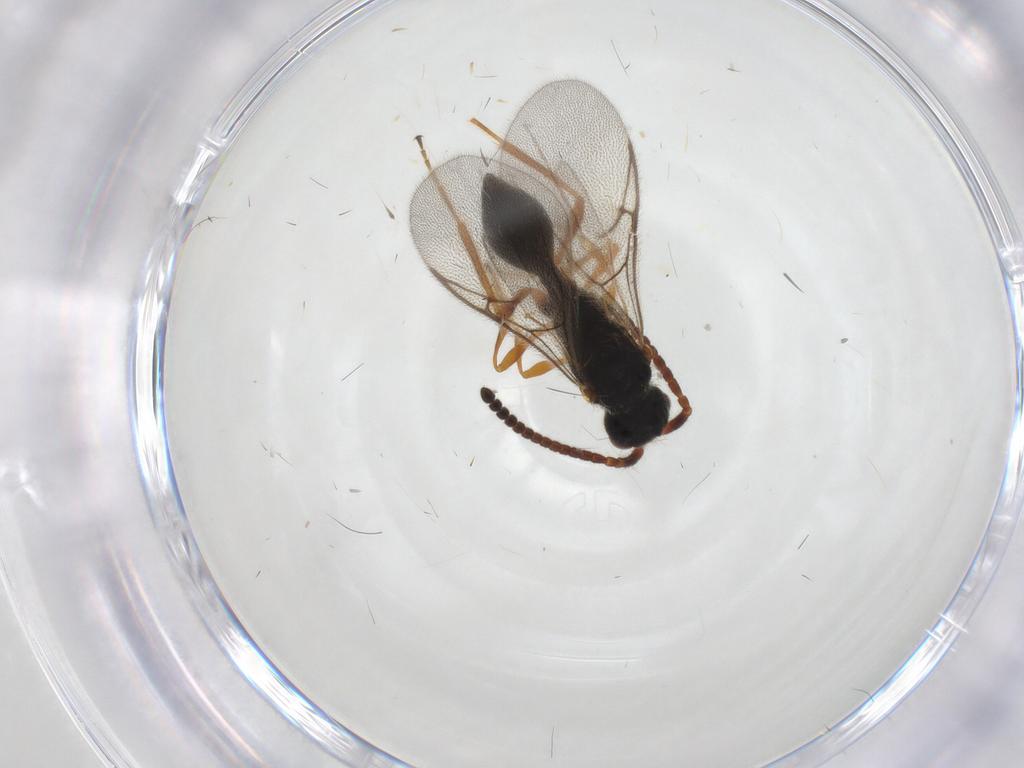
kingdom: Animalia
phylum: Arthropoda
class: Insecta
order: Hymenoptera
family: Diapriidae
